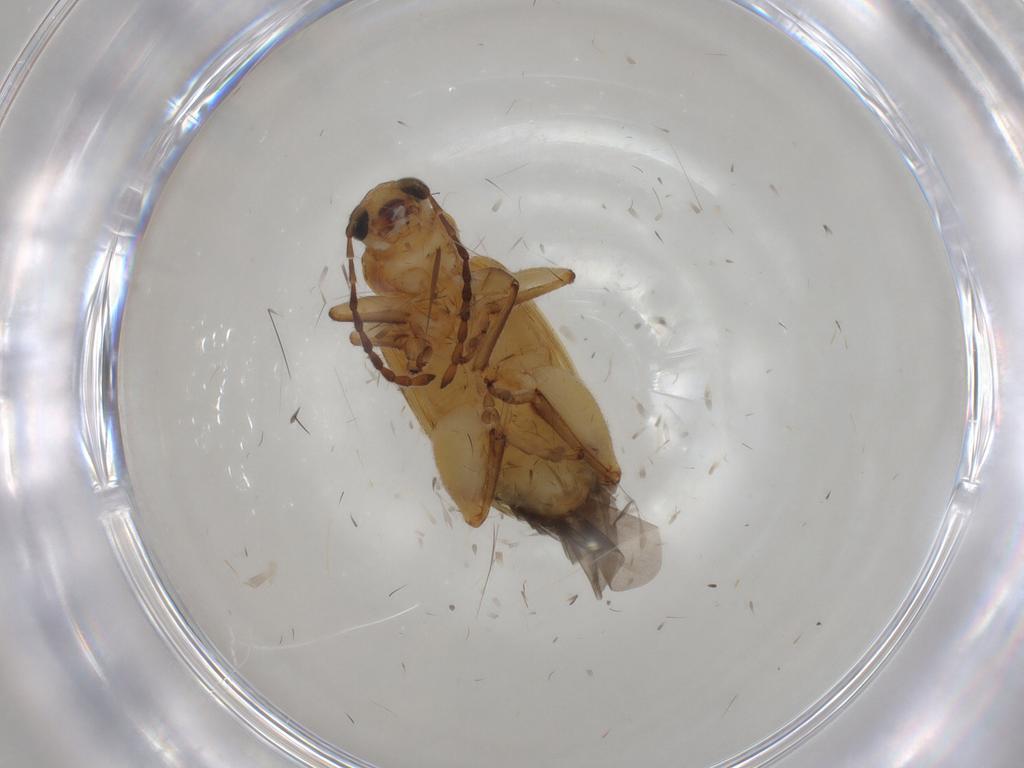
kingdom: Animalia
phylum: Arthropoda
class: Insecta
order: Coleoptera
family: Chrysomelidae
